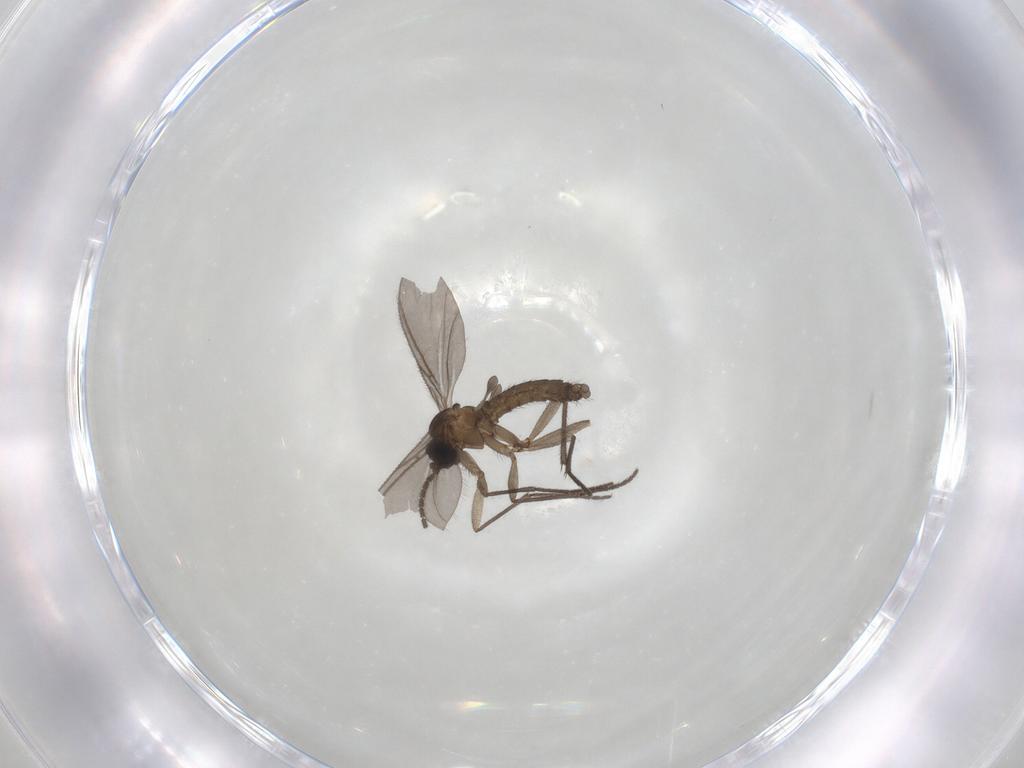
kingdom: Animalia
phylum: Arthropoda
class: Insecta
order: Diptera
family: Sciaridae
